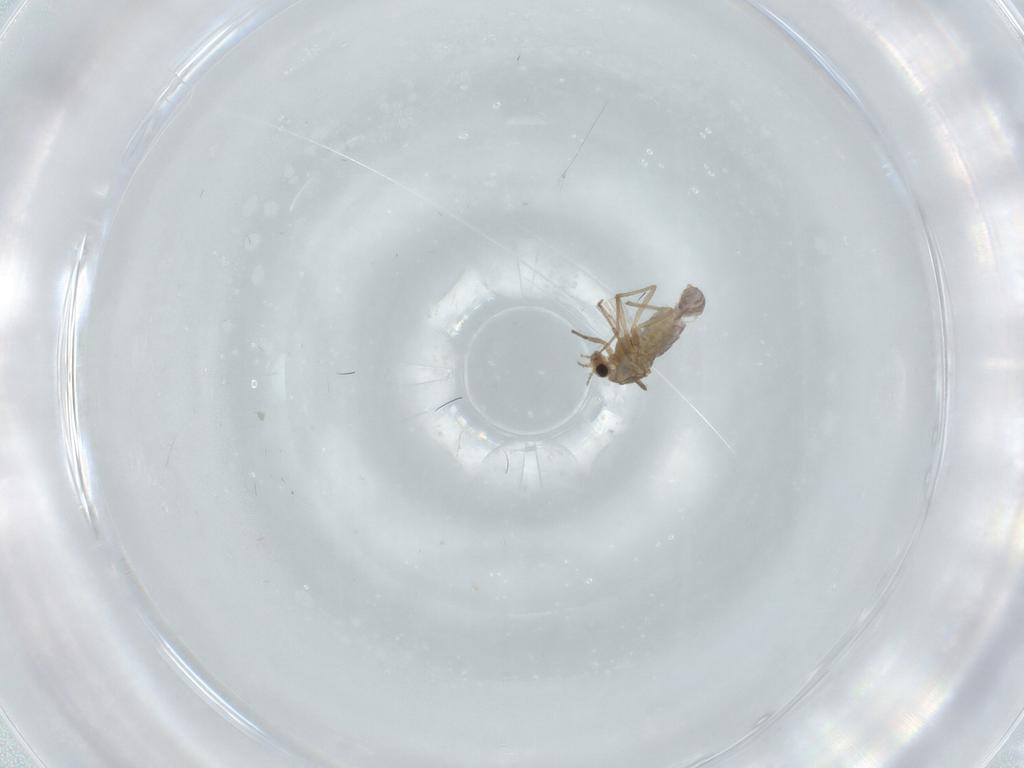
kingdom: Animalia
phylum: Arthropoda
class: Insecta
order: Diptera
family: Chironomidae
